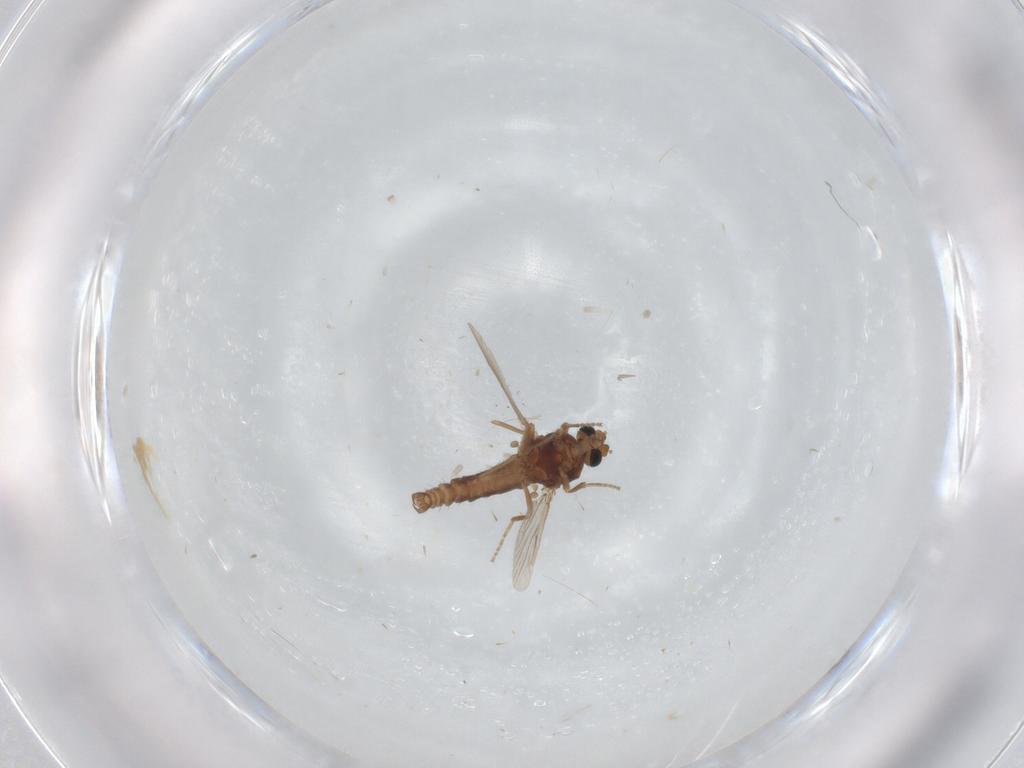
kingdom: Animalia
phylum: Arthropoda
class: Insecta
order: Diptera
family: Ceratopogonidae
